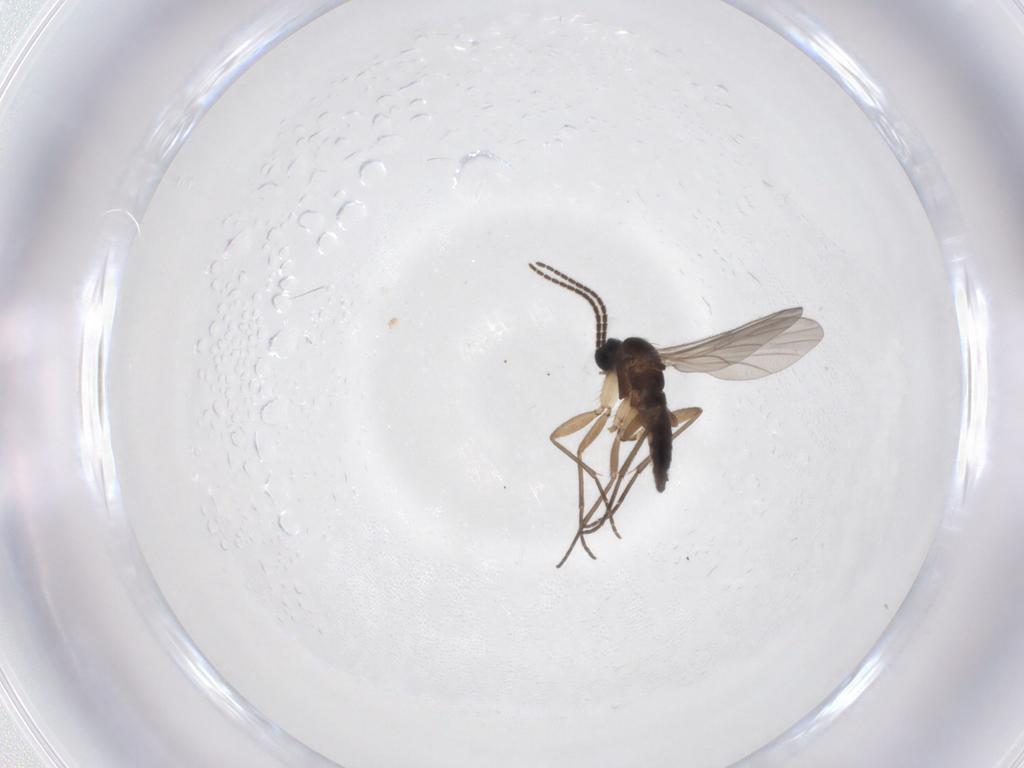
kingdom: Animalia
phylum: Arthropoda
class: Insecta
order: Diptera
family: Sciaridae
